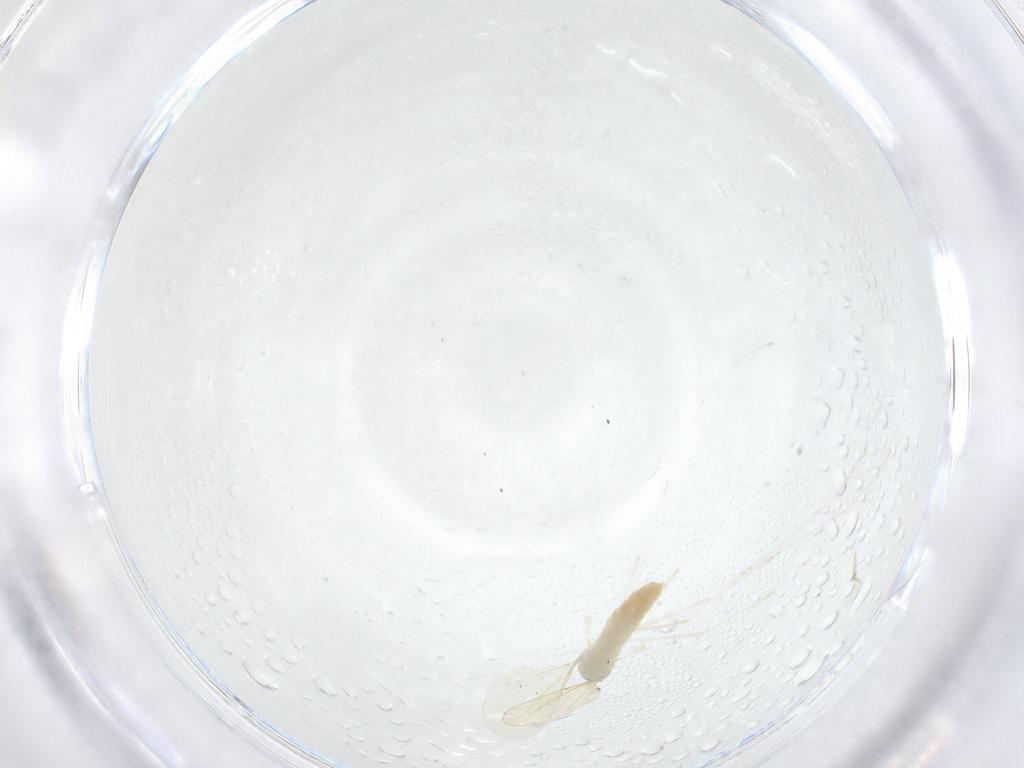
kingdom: Animalia
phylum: Arthropoda
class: Insecta
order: Diptera
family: Cecidomyiidae
